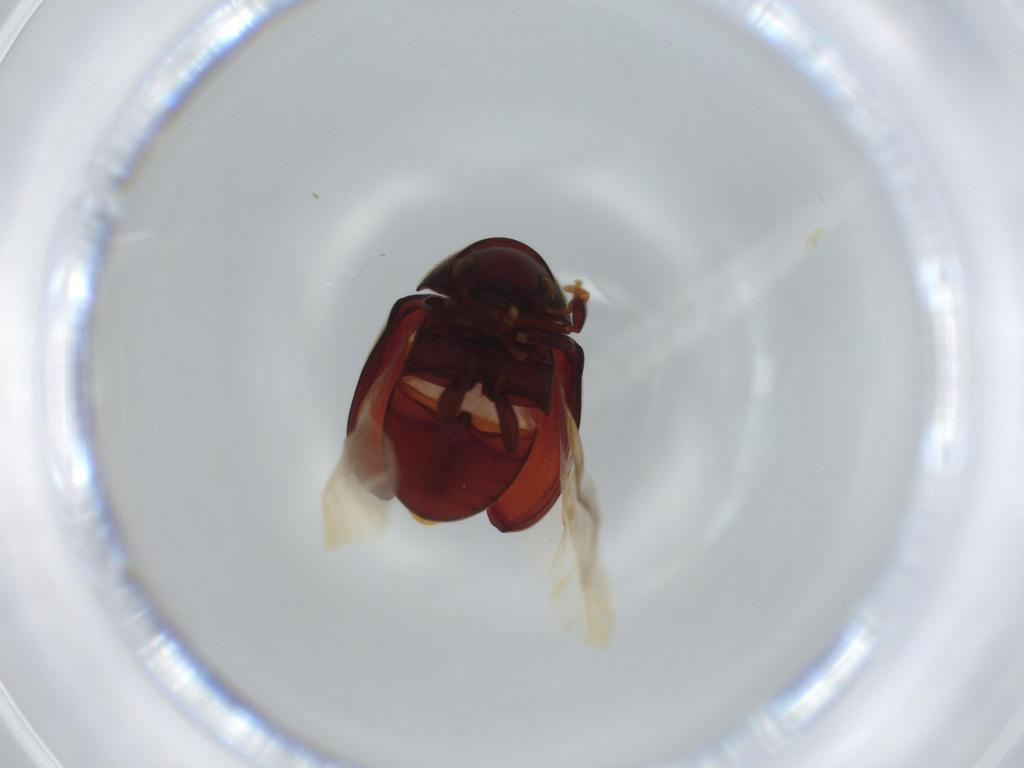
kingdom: Animalia
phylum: Arthropoda
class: Insecta
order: Coleoptera
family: Ptinidae
